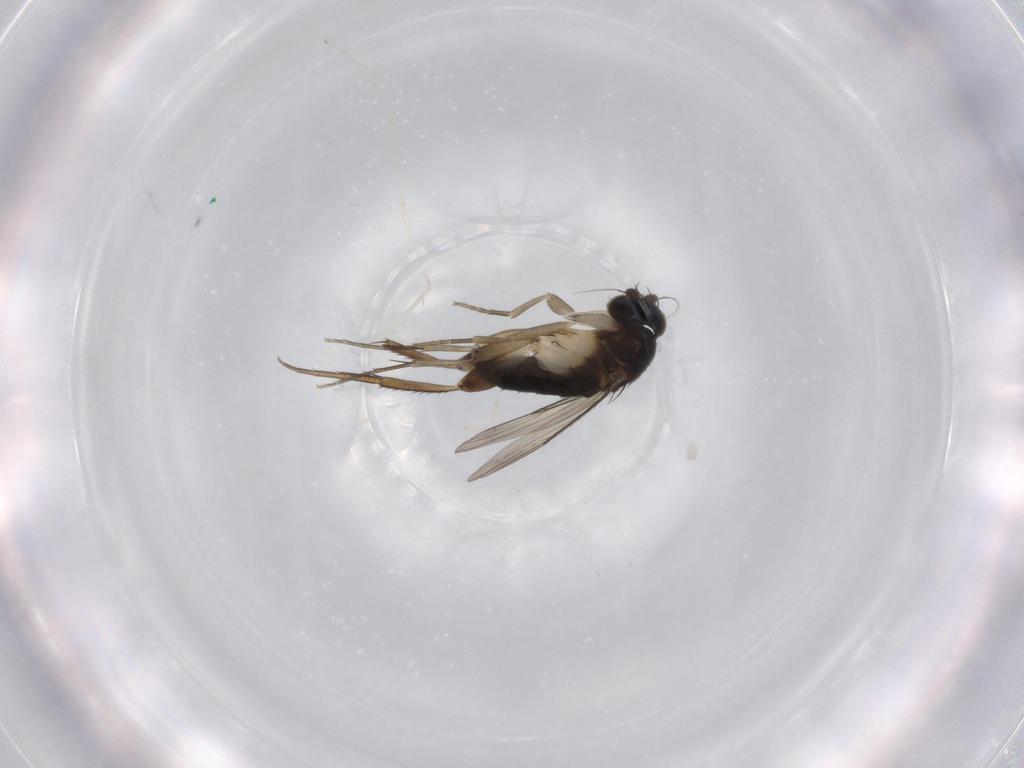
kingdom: Animalia
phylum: Arthropoda
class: Insecta
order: Diptera
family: Phoridae
